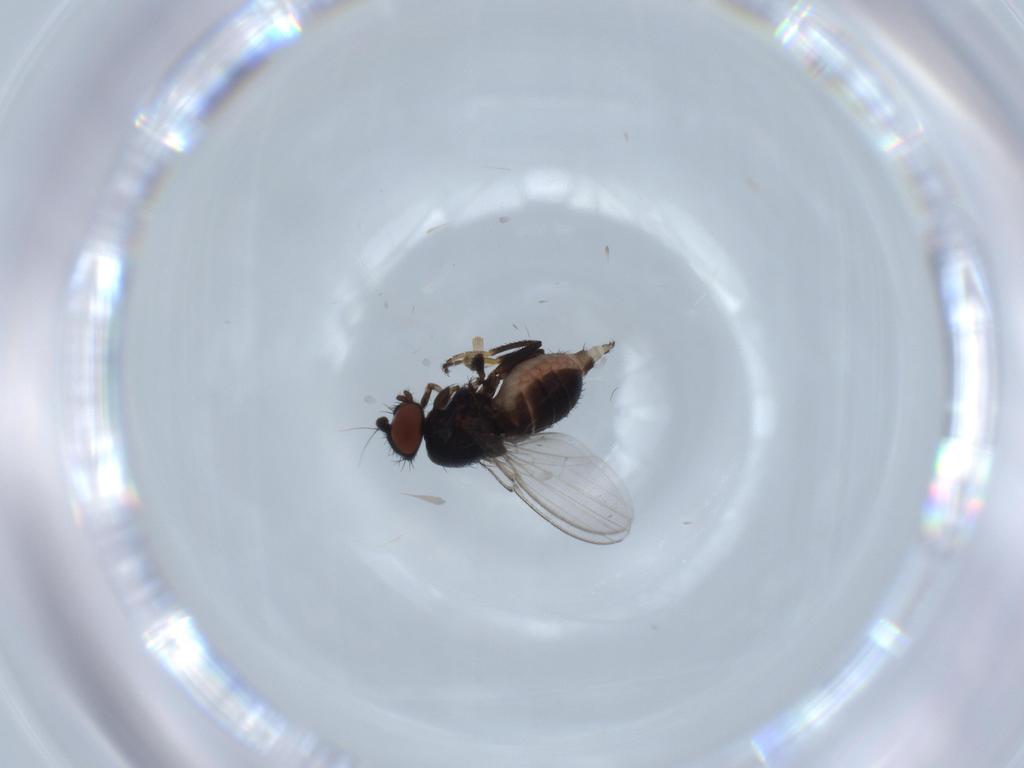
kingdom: Animalia
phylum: Arthropoda
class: Insecta
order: Diptera
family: Milichiidae
